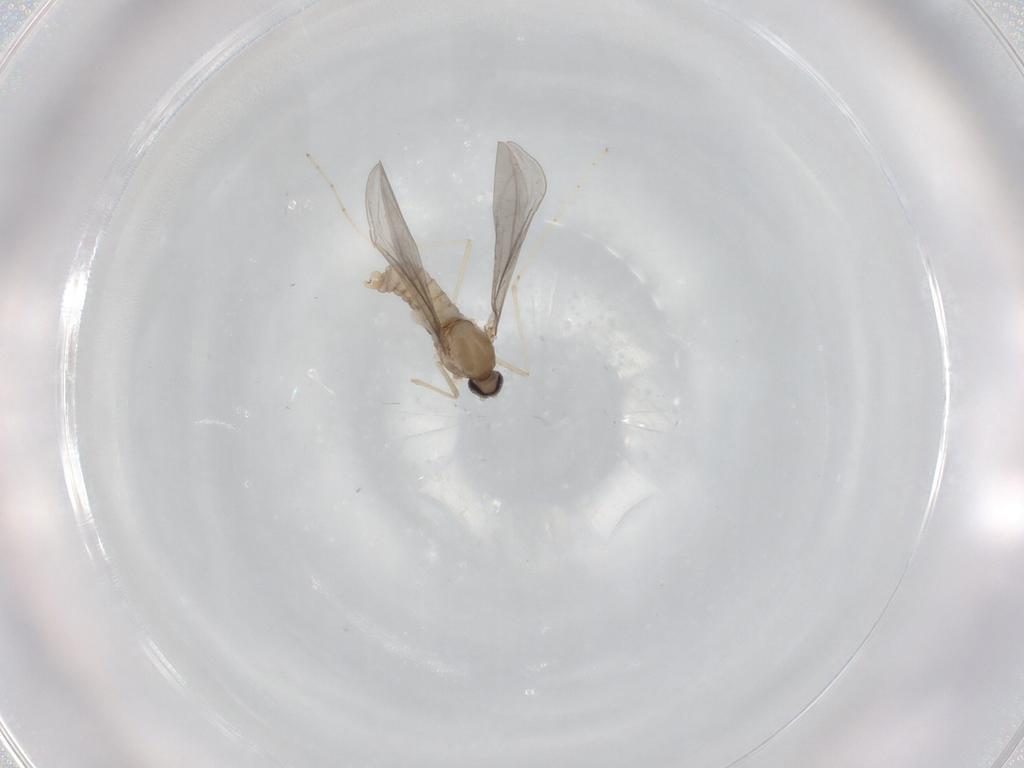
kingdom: Animalia
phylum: Arthropoda
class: Insecta
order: Diptera
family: Cecidomyiidae
